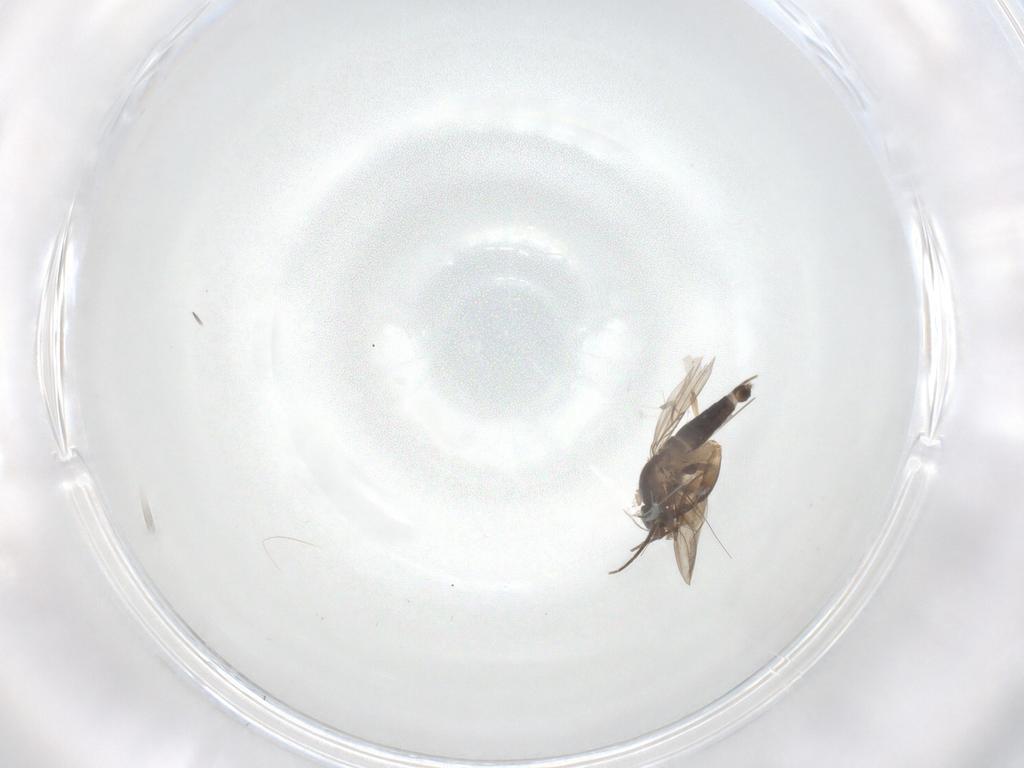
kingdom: Animalia
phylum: Arthropoda
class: Insecta
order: Diptera
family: Phoridae
